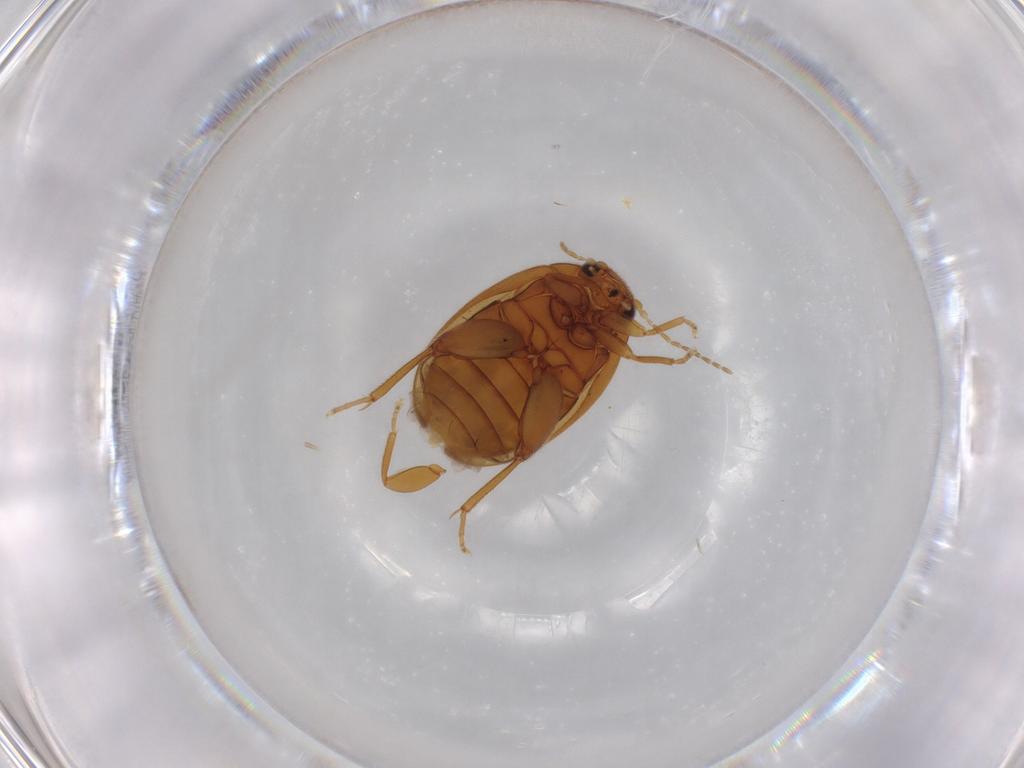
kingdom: Animalia
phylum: Arthropoda
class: Insecta
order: Coleoptera
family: Scirtidae
